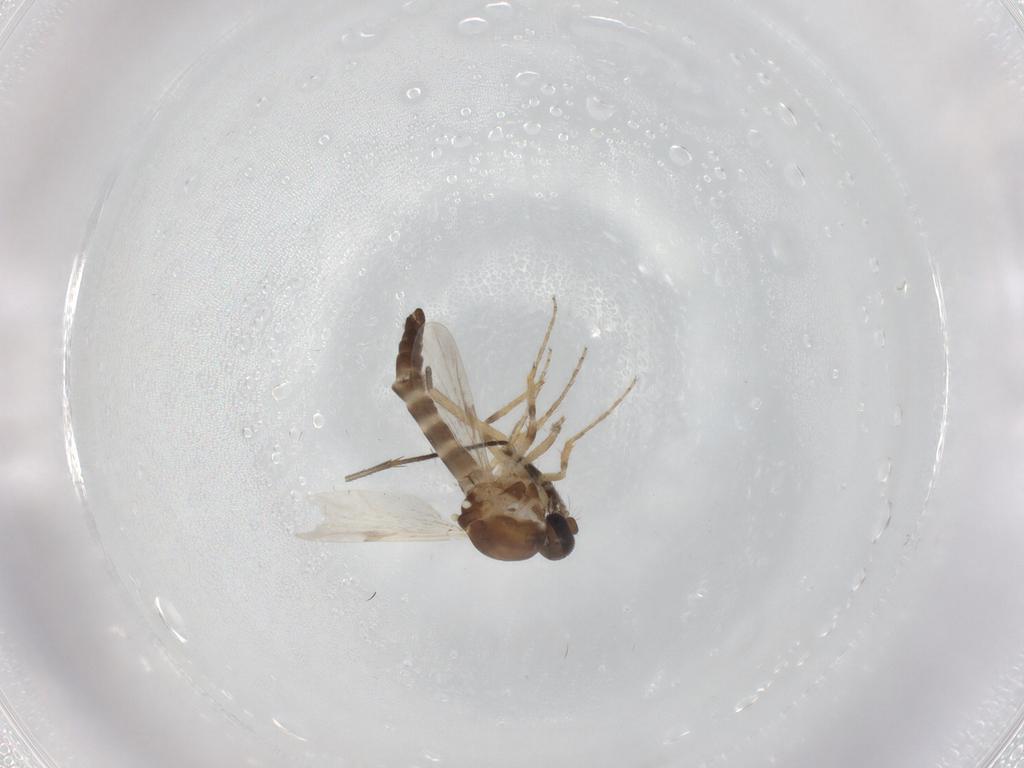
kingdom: Animalia
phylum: Arthropoda
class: Insecta
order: Diptera
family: Ceratopogonidae
